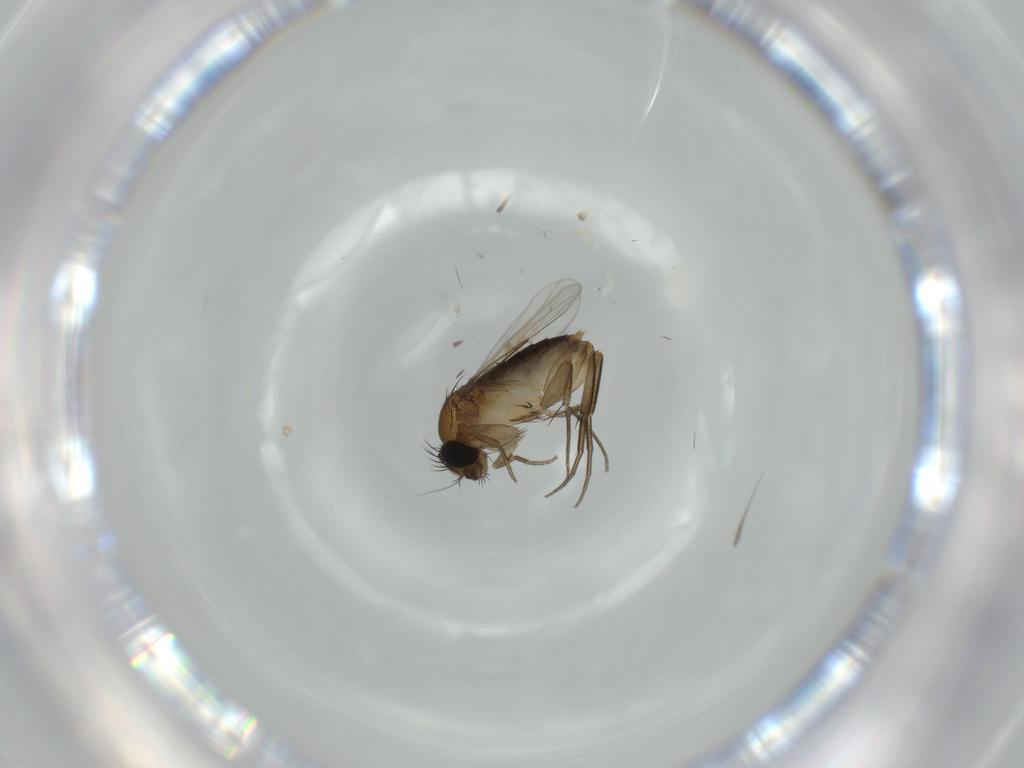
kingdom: Animalia
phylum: Arthropoda
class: Insecta
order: Diptera
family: Phoridae
